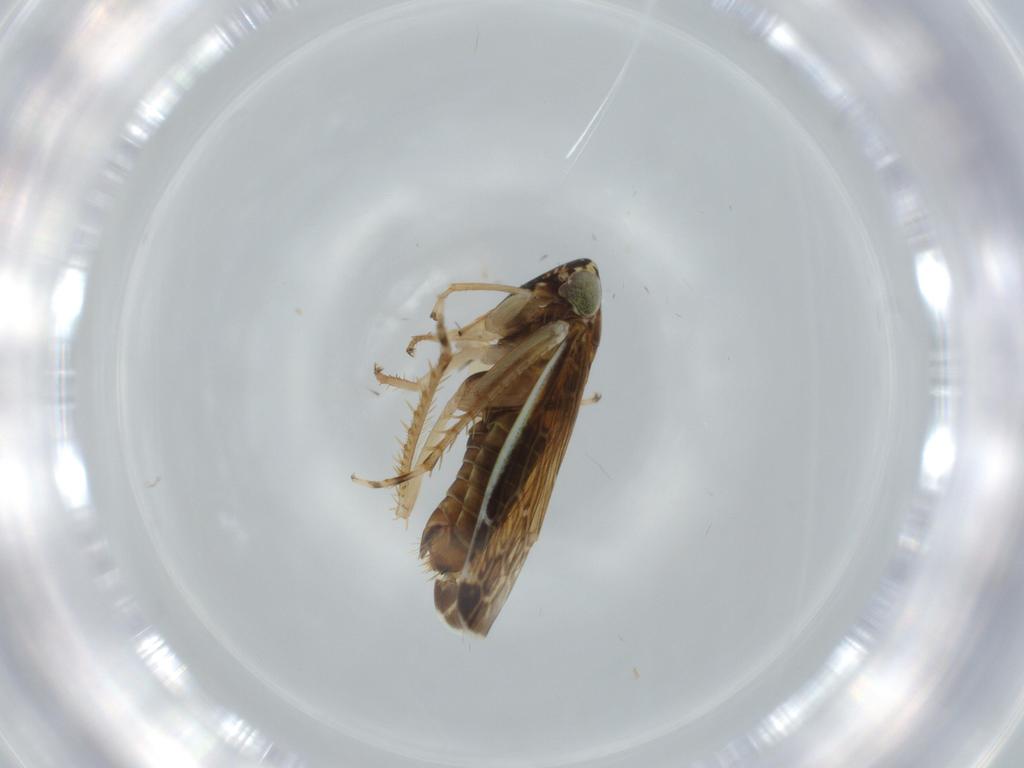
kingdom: Animalia
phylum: Arthropoda
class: Insecta
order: Hemiptera
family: Cicadellidae
